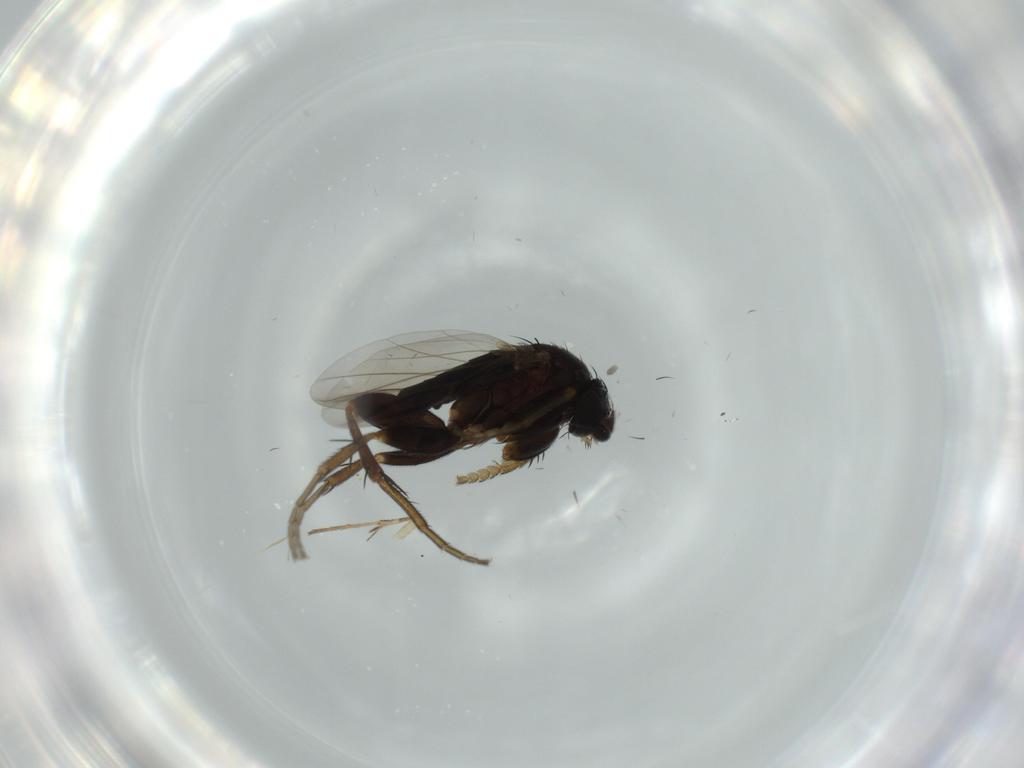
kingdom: Animalia
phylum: Arthropoda
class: Insecta
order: Diptera
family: Phoridae
